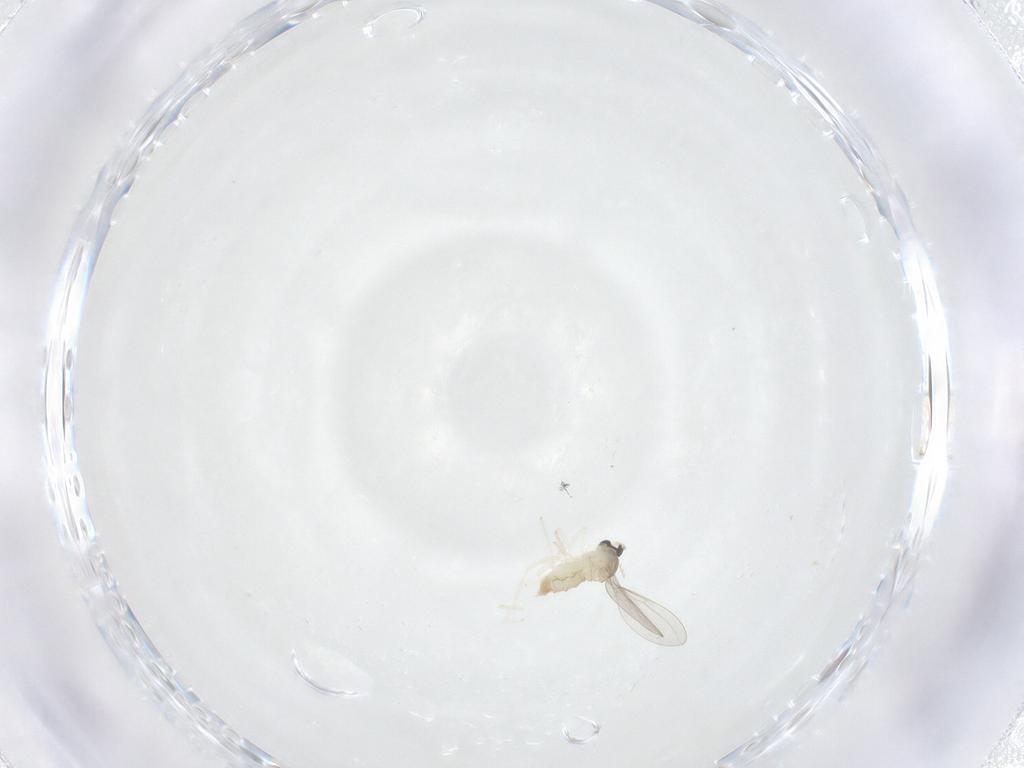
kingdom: Animalia
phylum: Arthropoda
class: Insecta
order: Diptera
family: Cecidomyiidae
